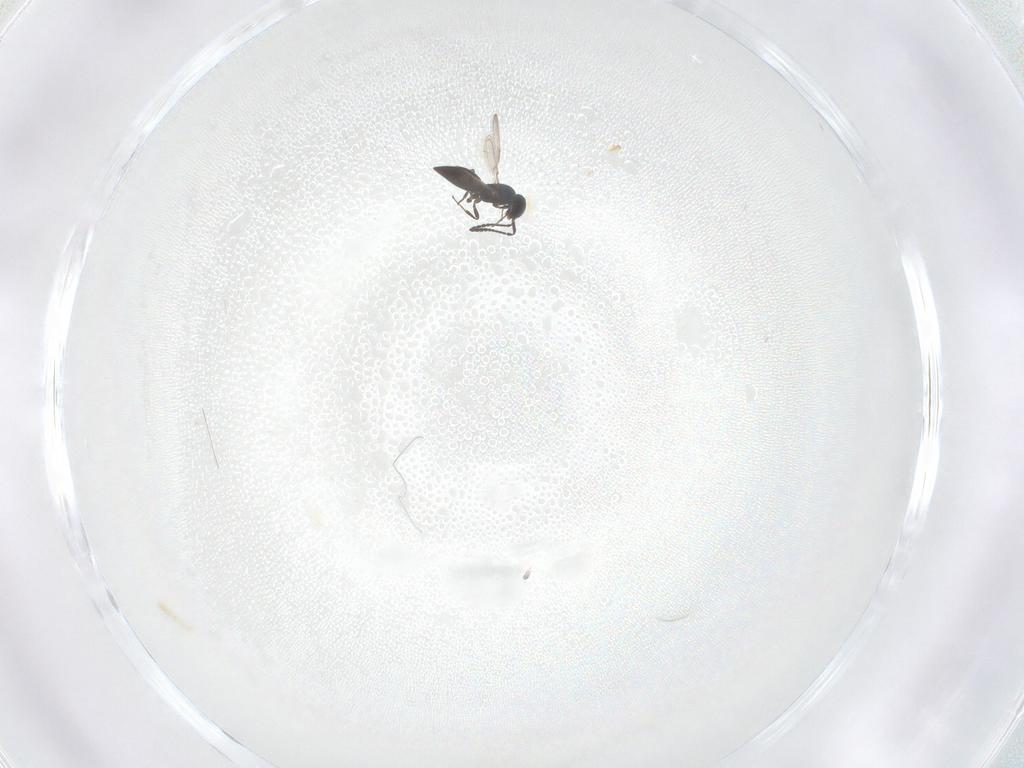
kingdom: Animalia
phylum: Arthropoda
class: Insecta
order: Hymenoptera
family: Scelionidae
